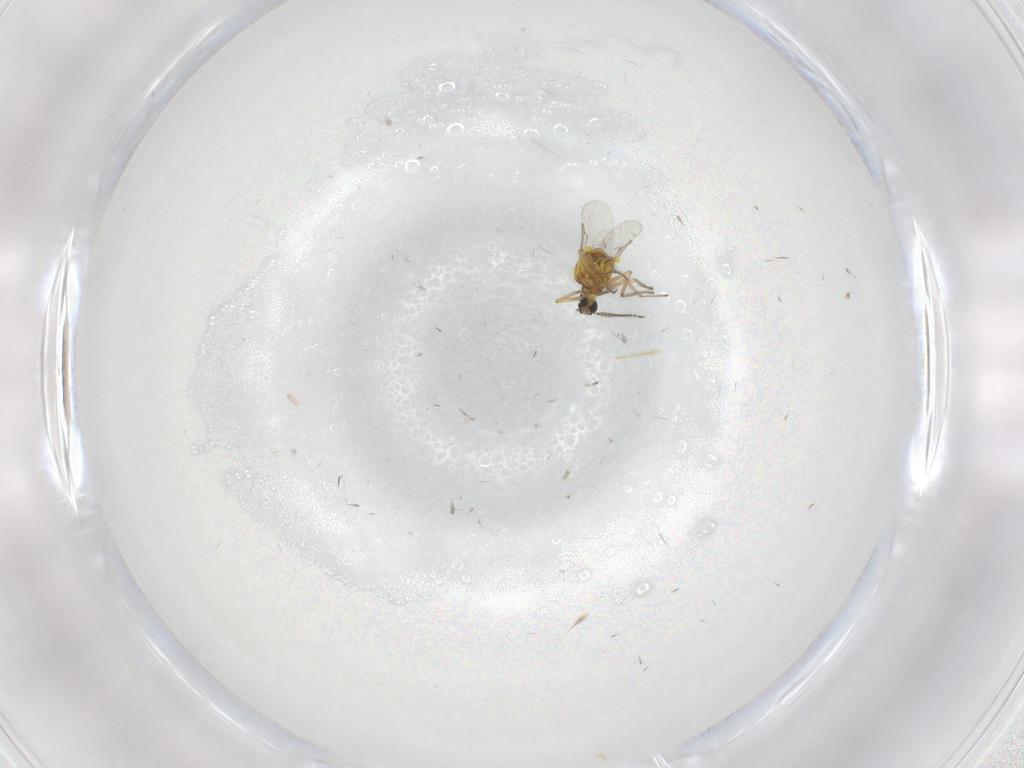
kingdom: Animalia
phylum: Arthropoda
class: Insecta
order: Diptera
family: Ceratopogonidae
